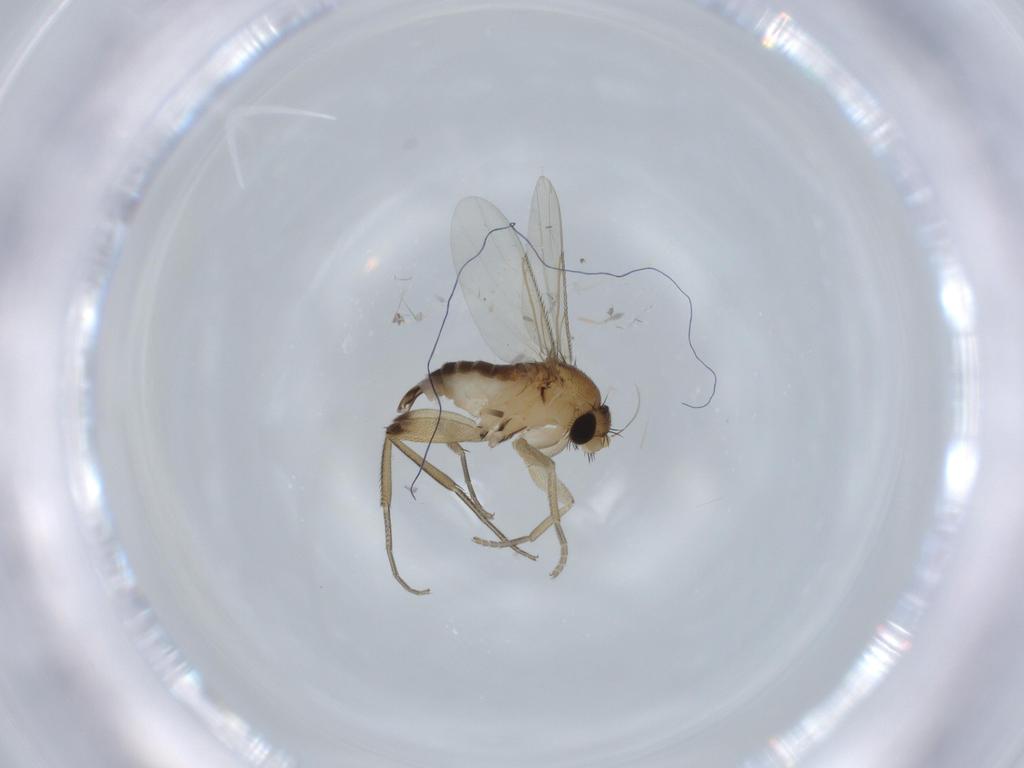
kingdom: Animalia
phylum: Arthropoda
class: Insecta
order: Diptera
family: Phoridae
